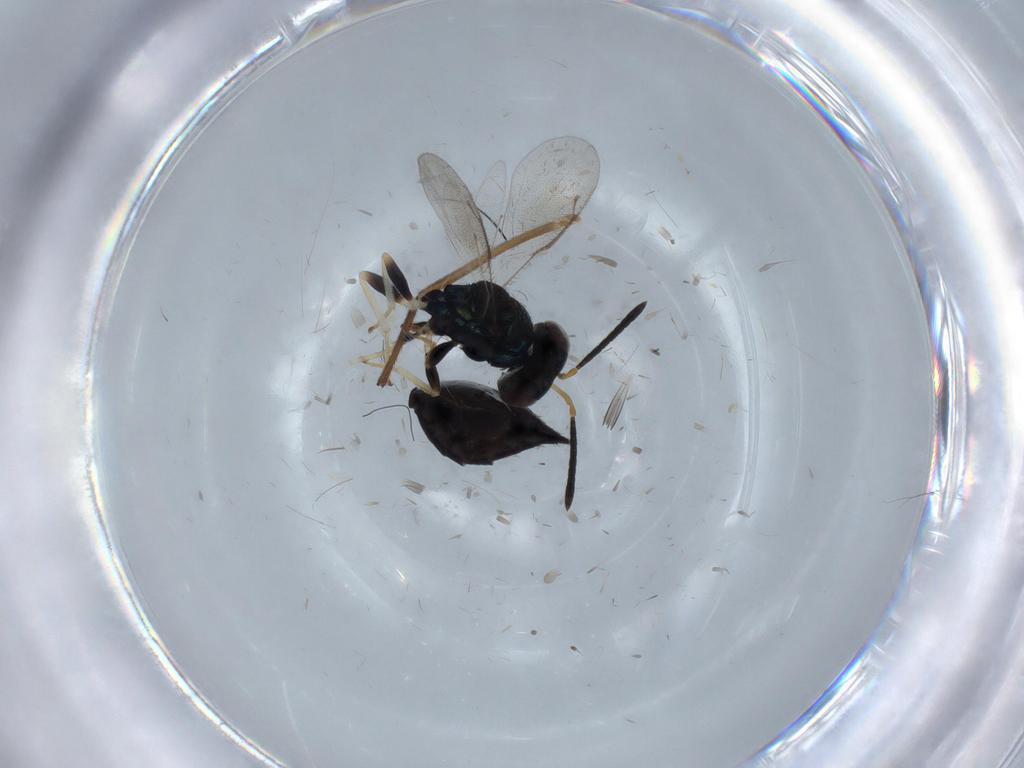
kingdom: Animalia
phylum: Arthropoda
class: Insecta
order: Hymenoptera
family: Pteromalidae
